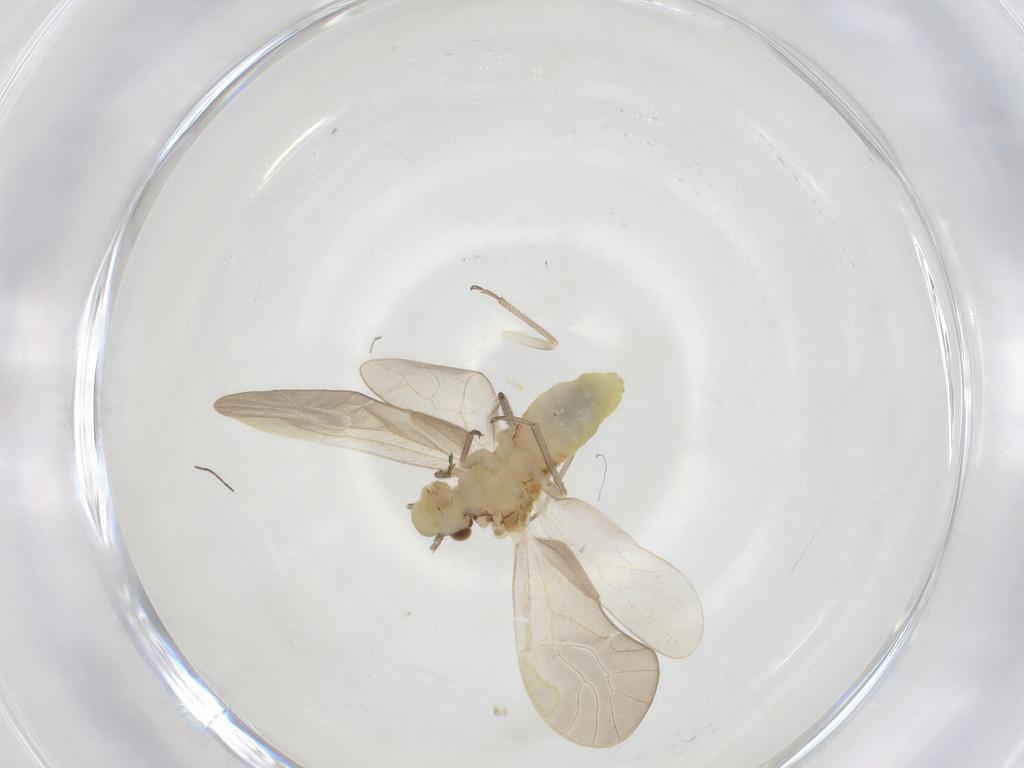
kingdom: Animalia
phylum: Arthropoda
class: Insecta
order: Psocodea
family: Caeciliusidae
